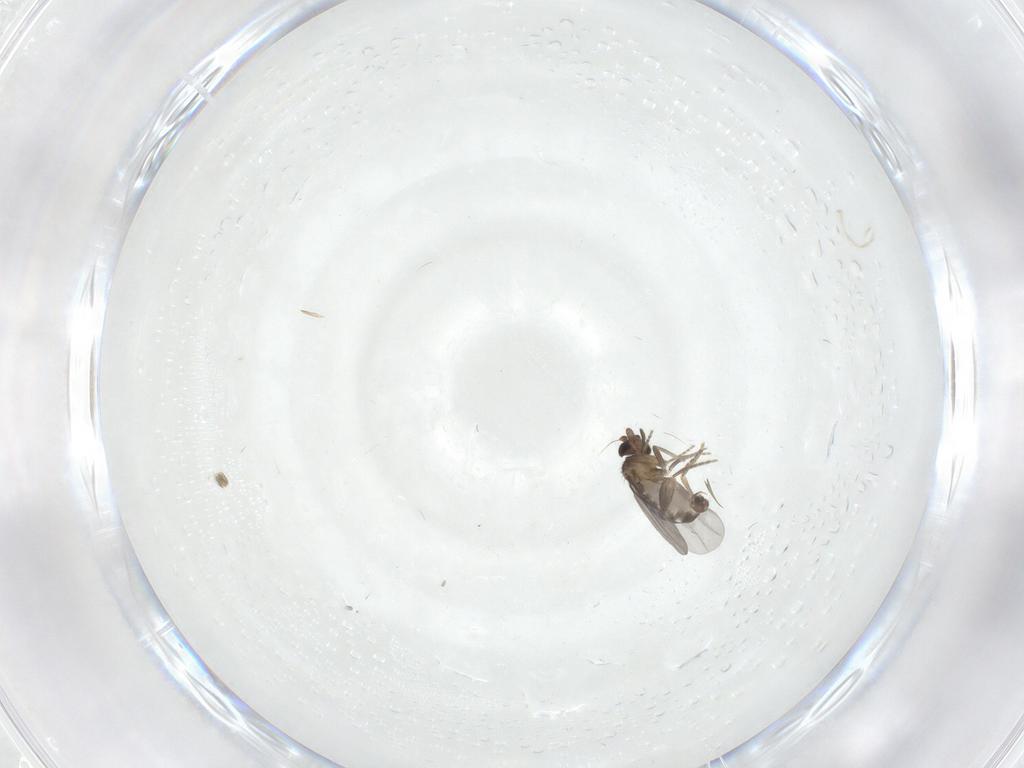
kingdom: Animalia
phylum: Arthropoda
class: Insecta
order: Diptera
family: Chironomidae
